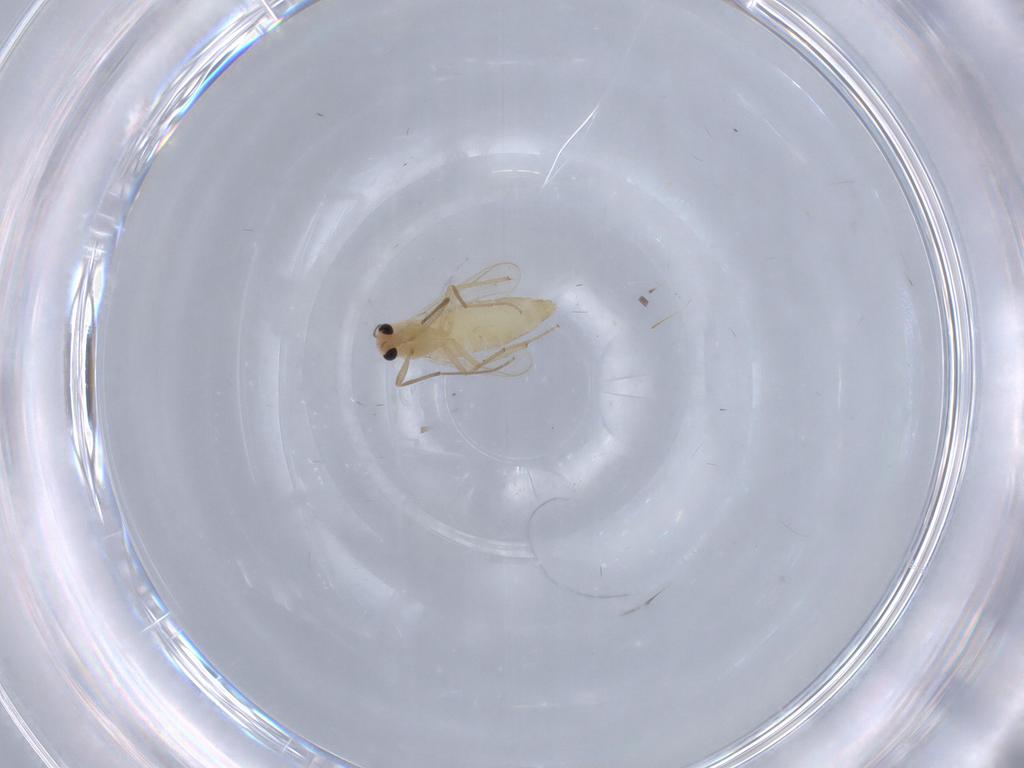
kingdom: Animalia
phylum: Arthropoda
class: Insecta
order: Diptera
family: Chironomidae
